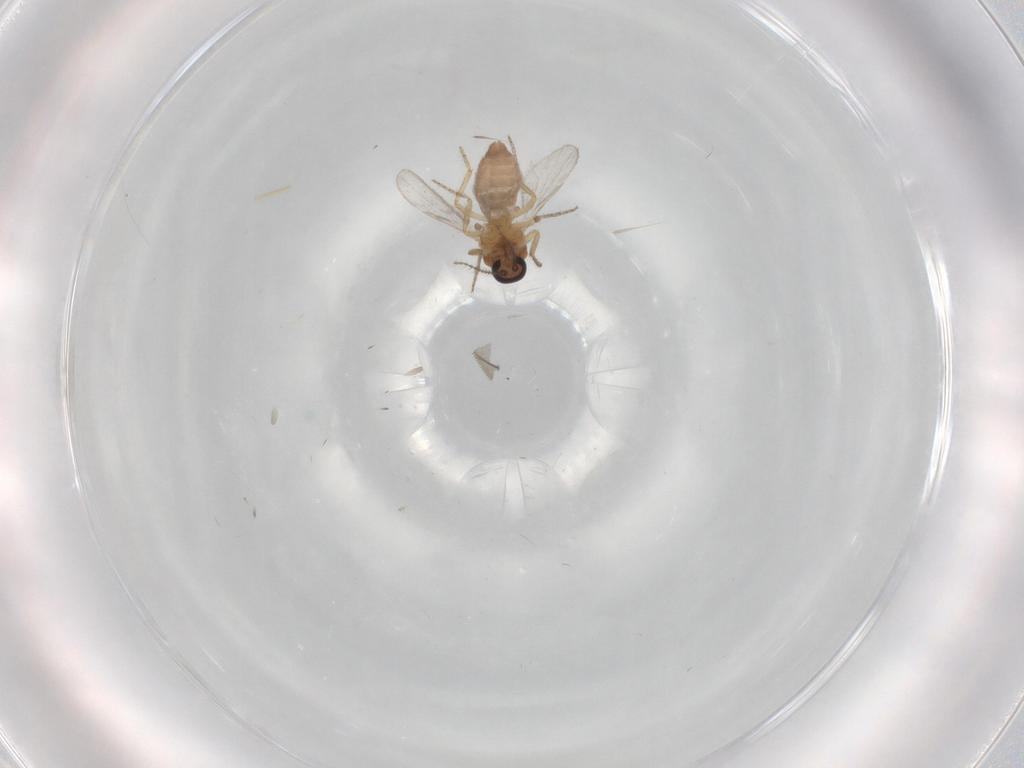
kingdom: Animalia
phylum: Arthropoda
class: Insecta
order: Diptera
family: Ceratopogonidae
